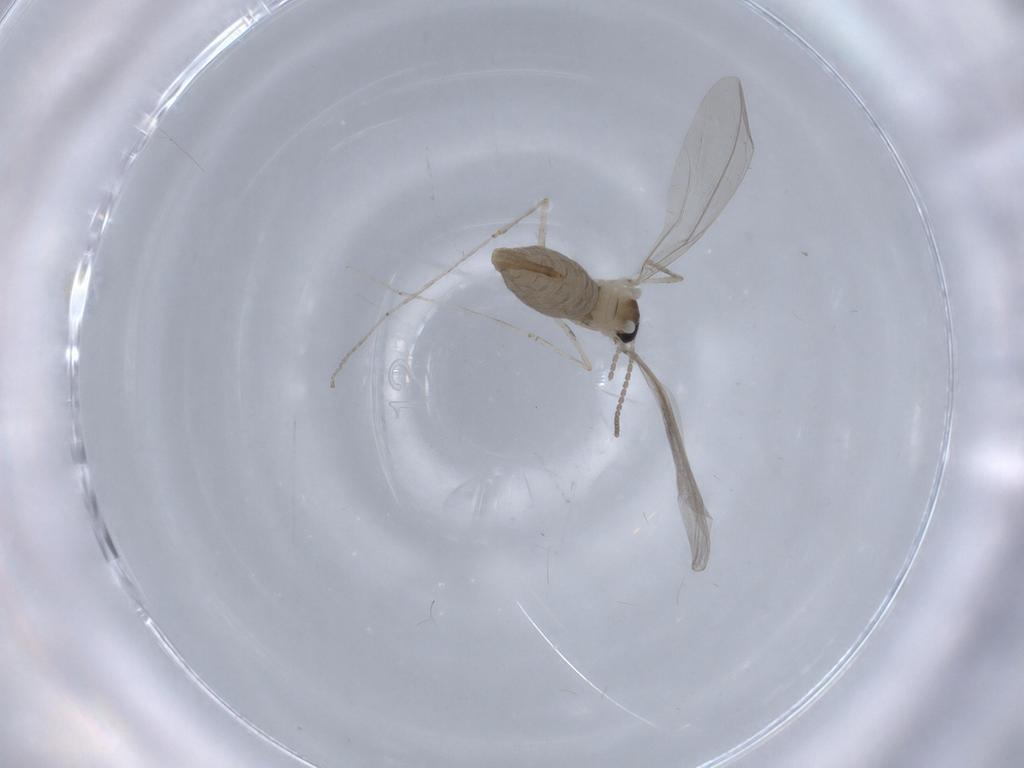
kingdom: Animalia
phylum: Arthropoda
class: Insecta
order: Diptera
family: Cecidomyiidae
